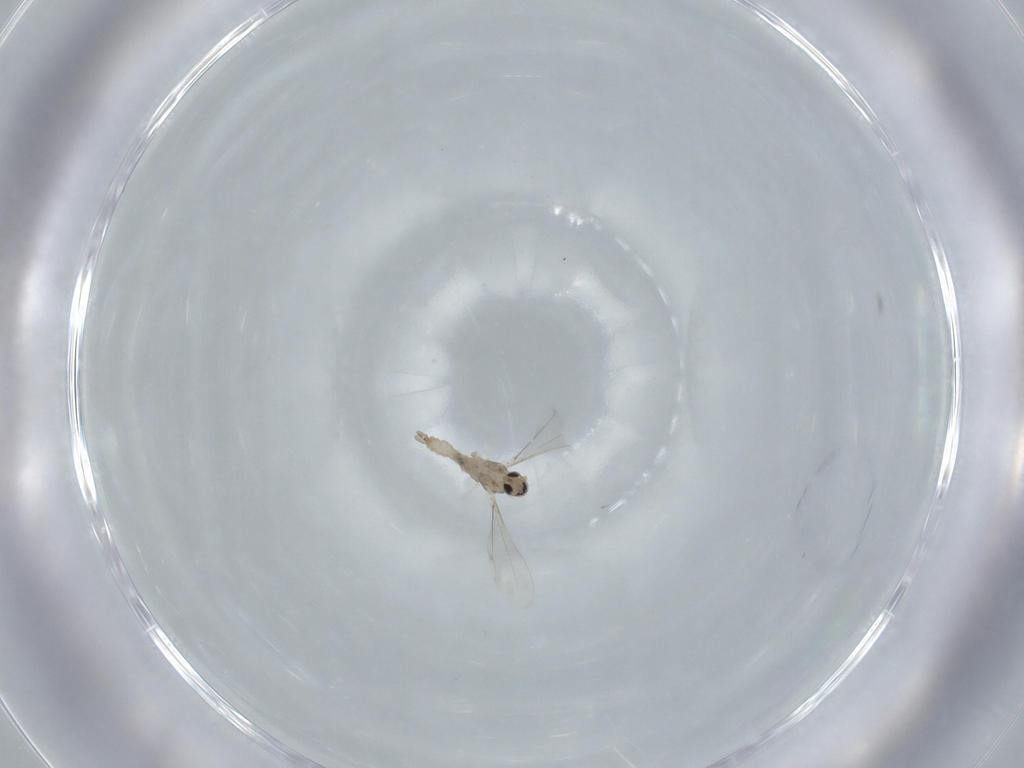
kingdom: Animalia
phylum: Arthropoda
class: Insecta
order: Diptera
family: Cecidomyiidae
